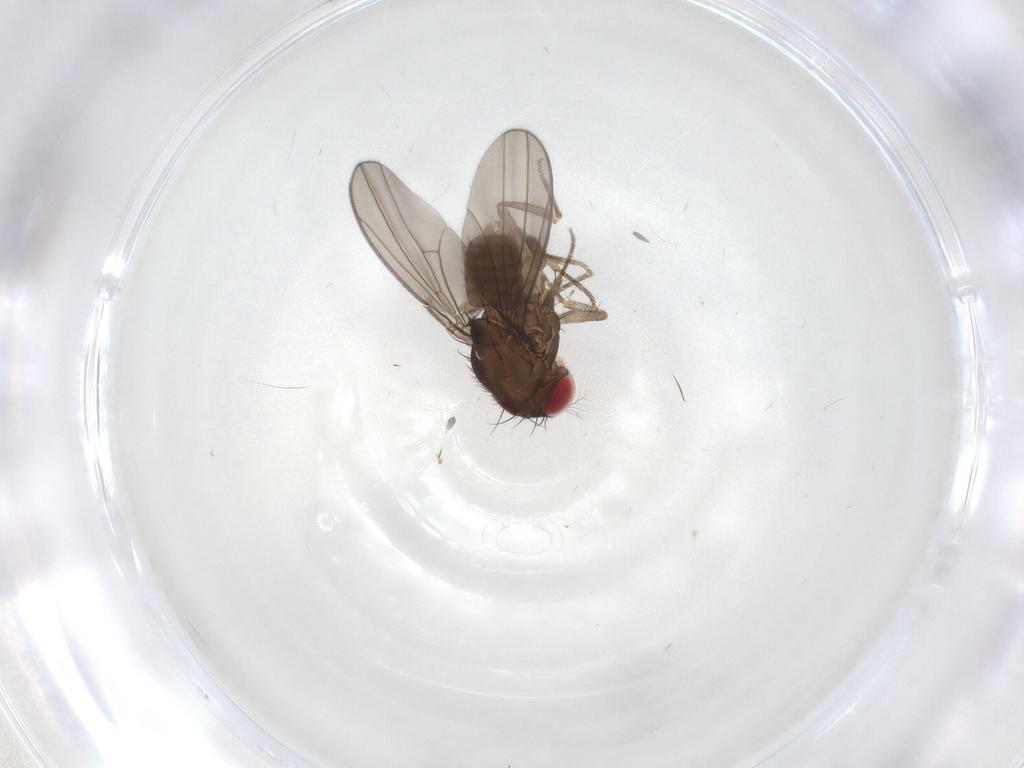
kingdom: Animalia
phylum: Arthropoda
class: Insecta
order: Diptera
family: Drosophilidae
